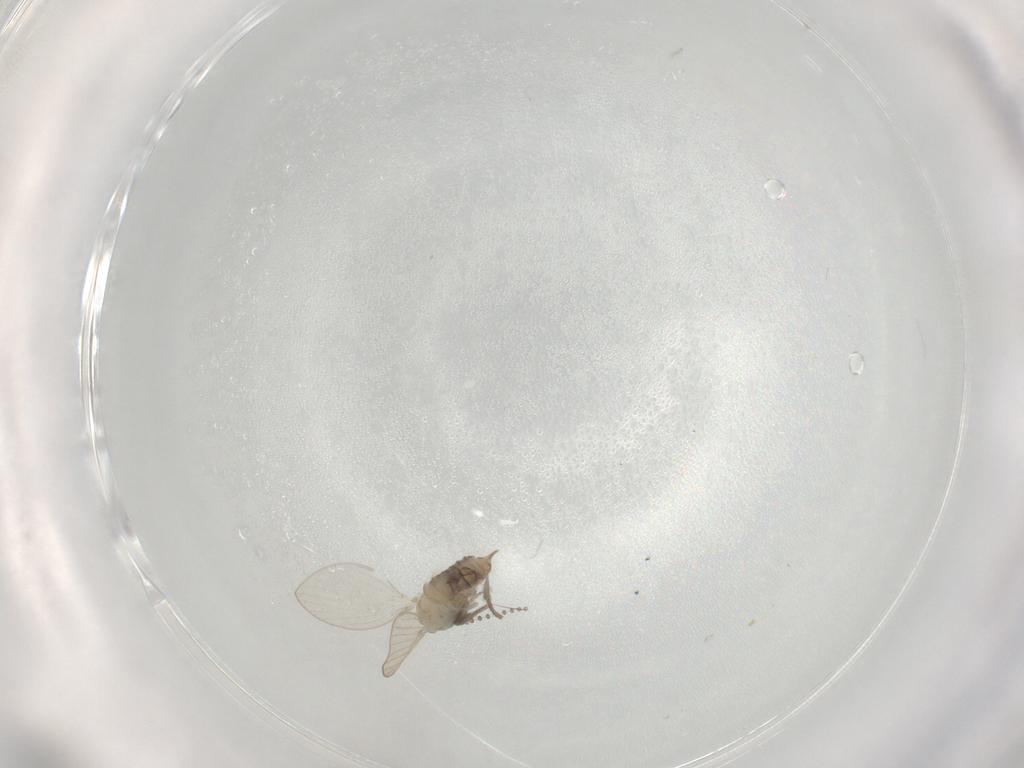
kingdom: Animalia
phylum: Arthropoda
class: Insecta
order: Diptera
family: Psychodidae
